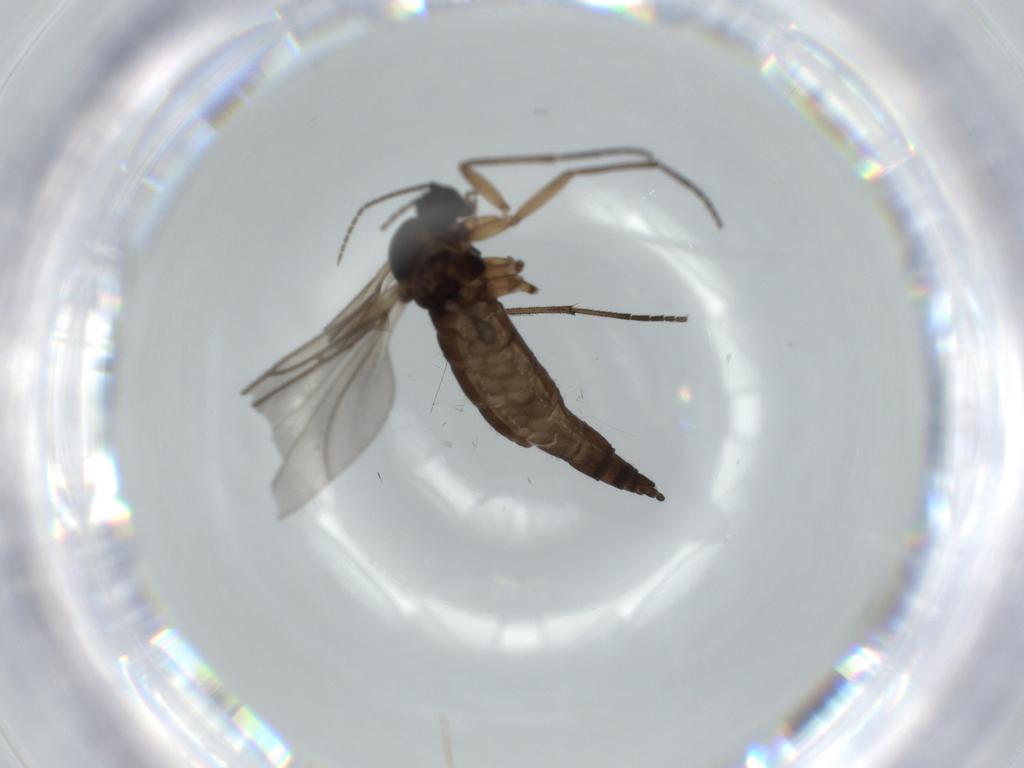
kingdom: Animalia
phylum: Arthropoda
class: Insecta
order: Diptera
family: Sciaridae
